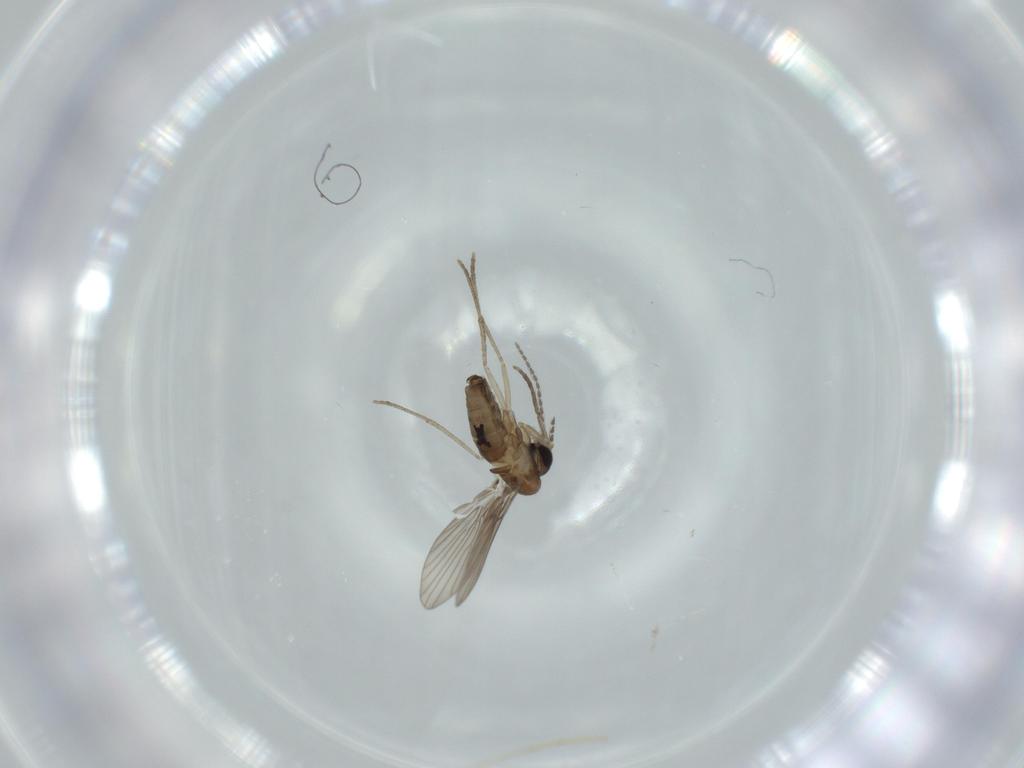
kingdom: Animalia
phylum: Arthropoda
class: Insecta
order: Diptera
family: Psychodidae
